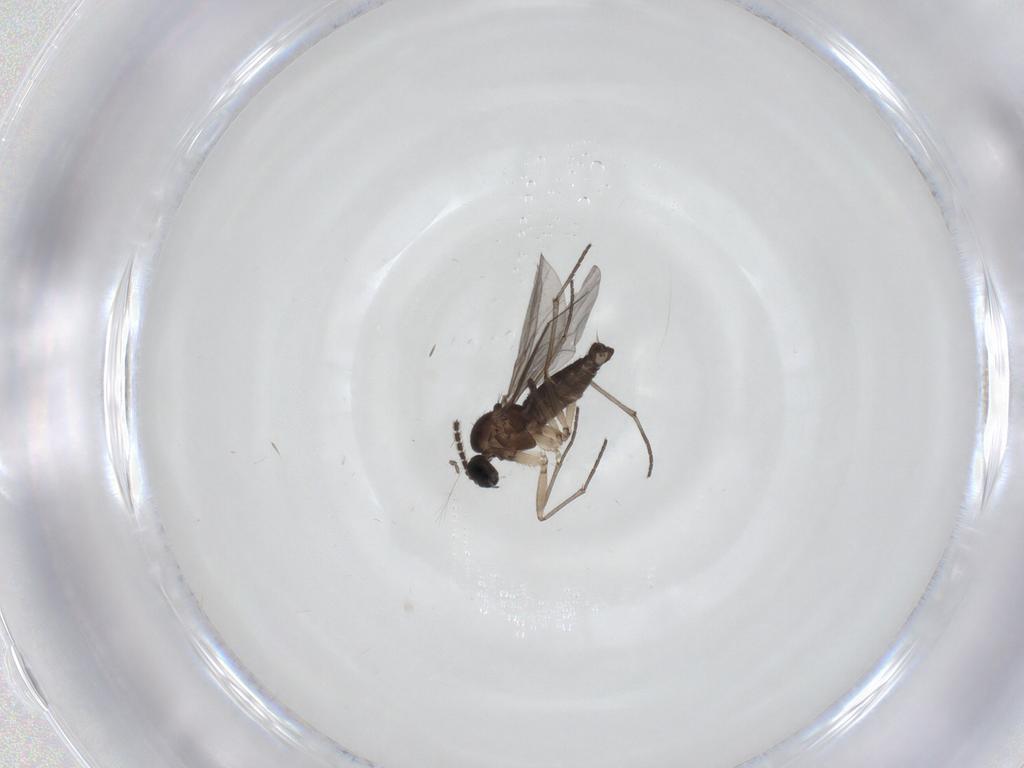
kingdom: Animalia
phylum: Arthropoda
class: Insecta
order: Diptera
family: Sciaridae
